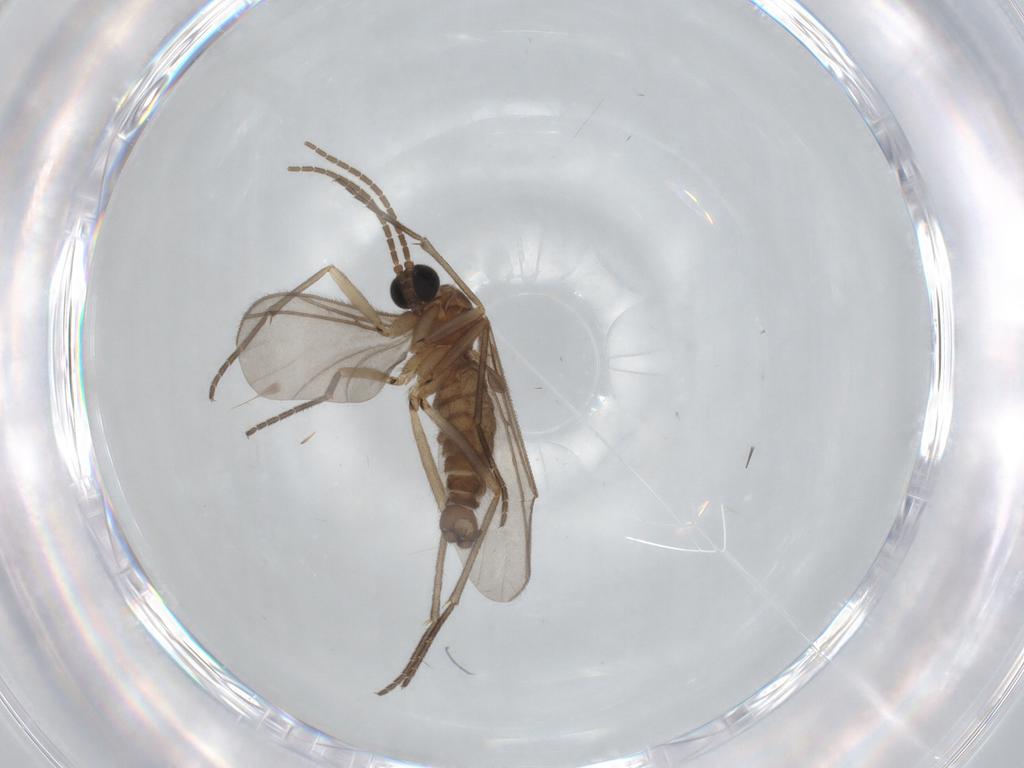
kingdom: Animalia
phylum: Arthropoda
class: Insecta
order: Diptera
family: Sciaridae
